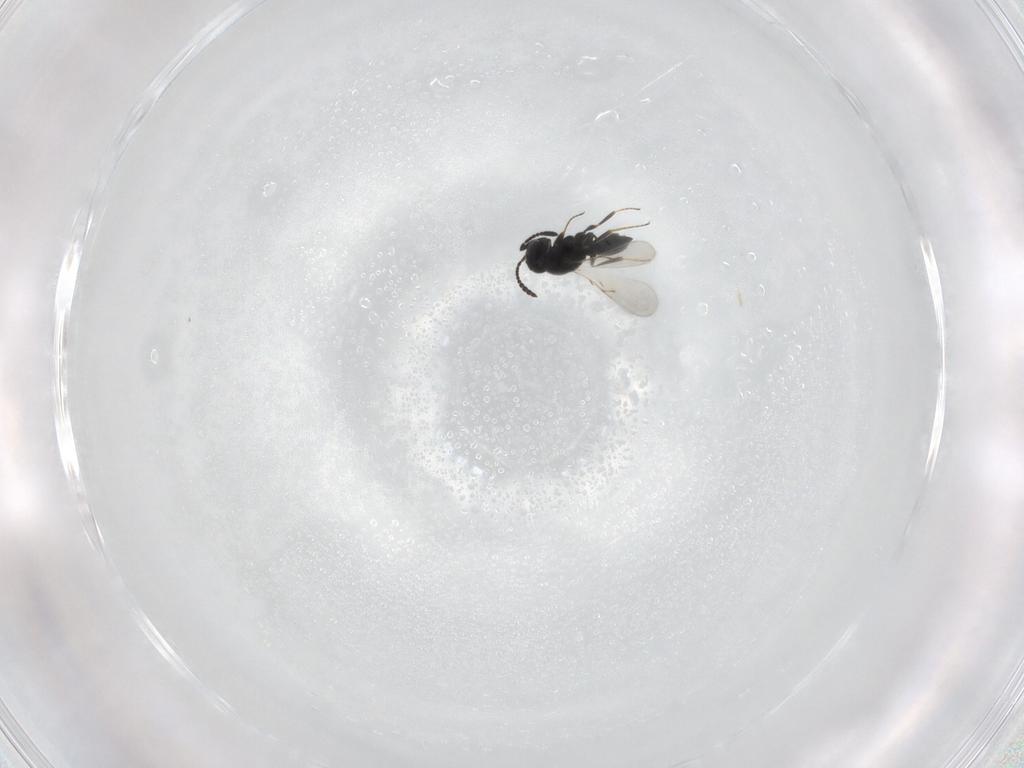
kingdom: Animalia
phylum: Arthropoda
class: Insecta
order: Hymenoptera
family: Scelionidae
